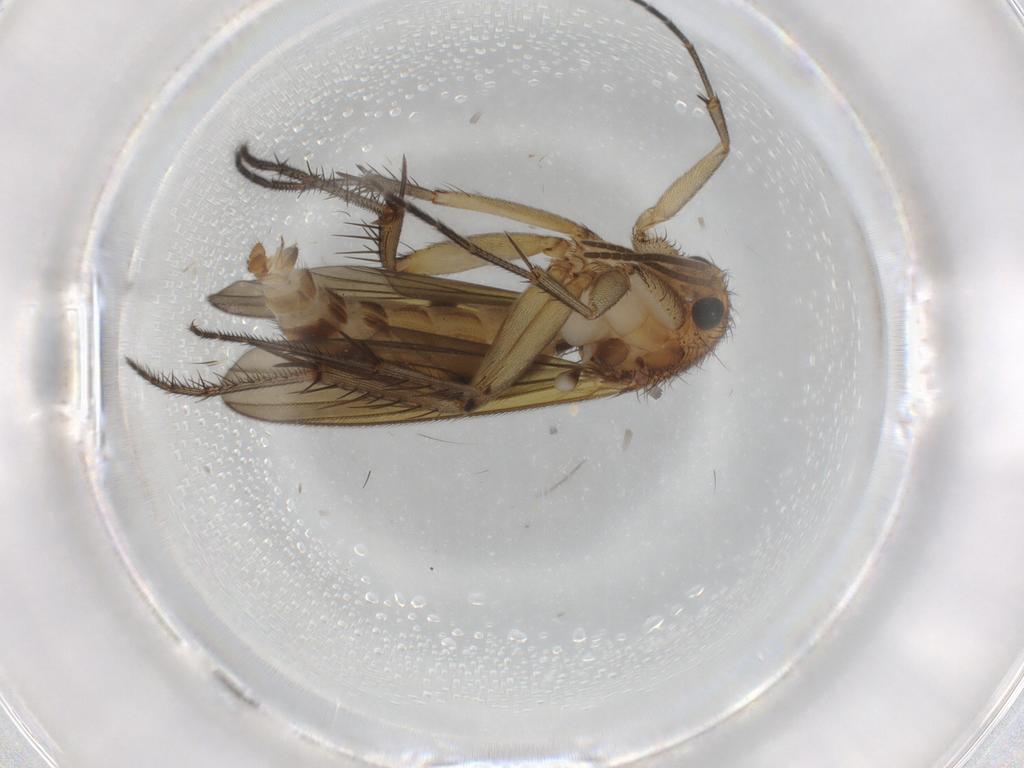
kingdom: Animalia
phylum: Arthropoda
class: Insecta
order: Diptera
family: Mycetophilidae
